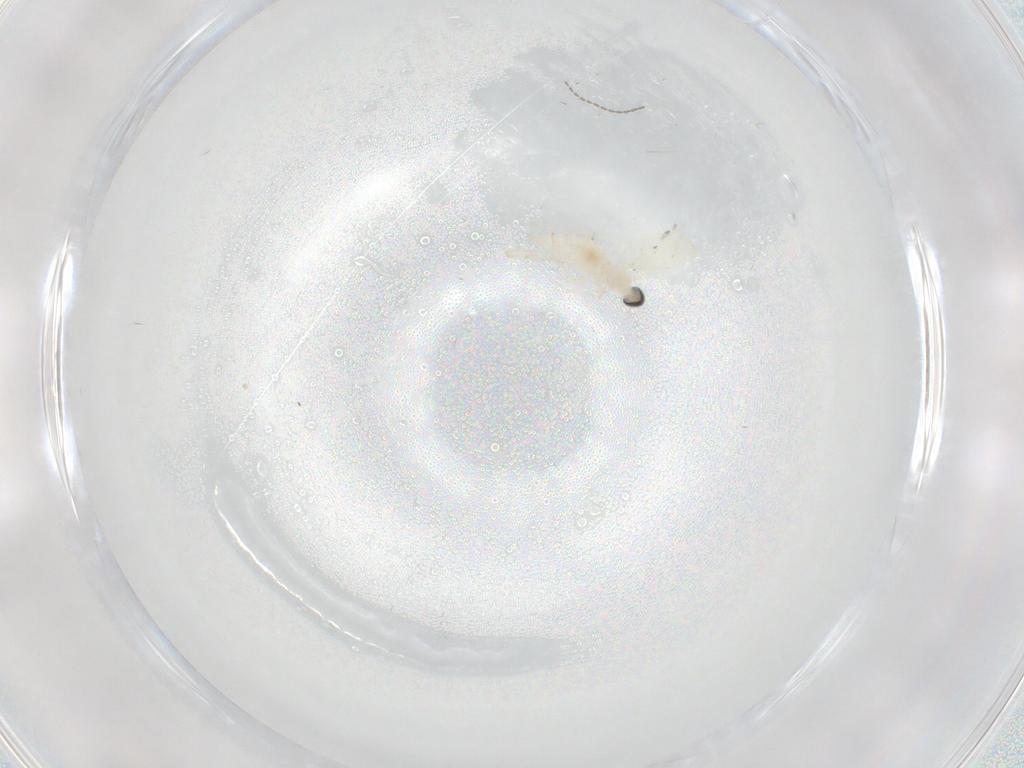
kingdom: Animalia
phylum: Arthropoda
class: Insecta
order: Diptera
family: Cecidomyiidae
